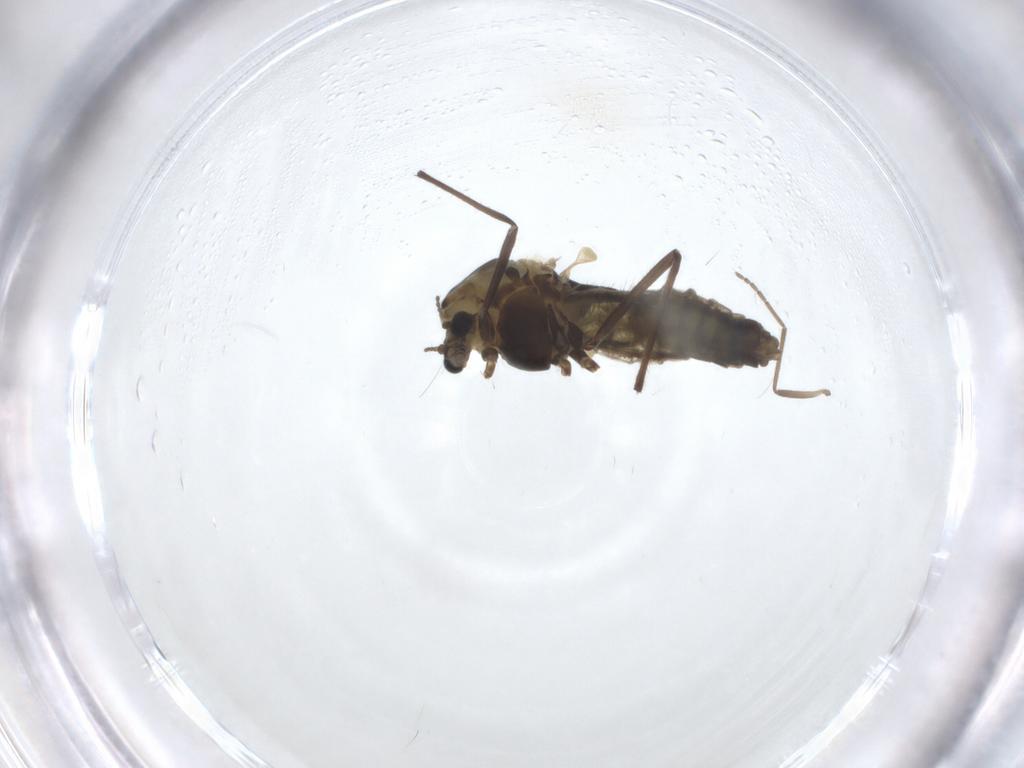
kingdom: Animalia
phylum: Arthropoda
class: Insecta
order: Diptera
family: Chironomidae
